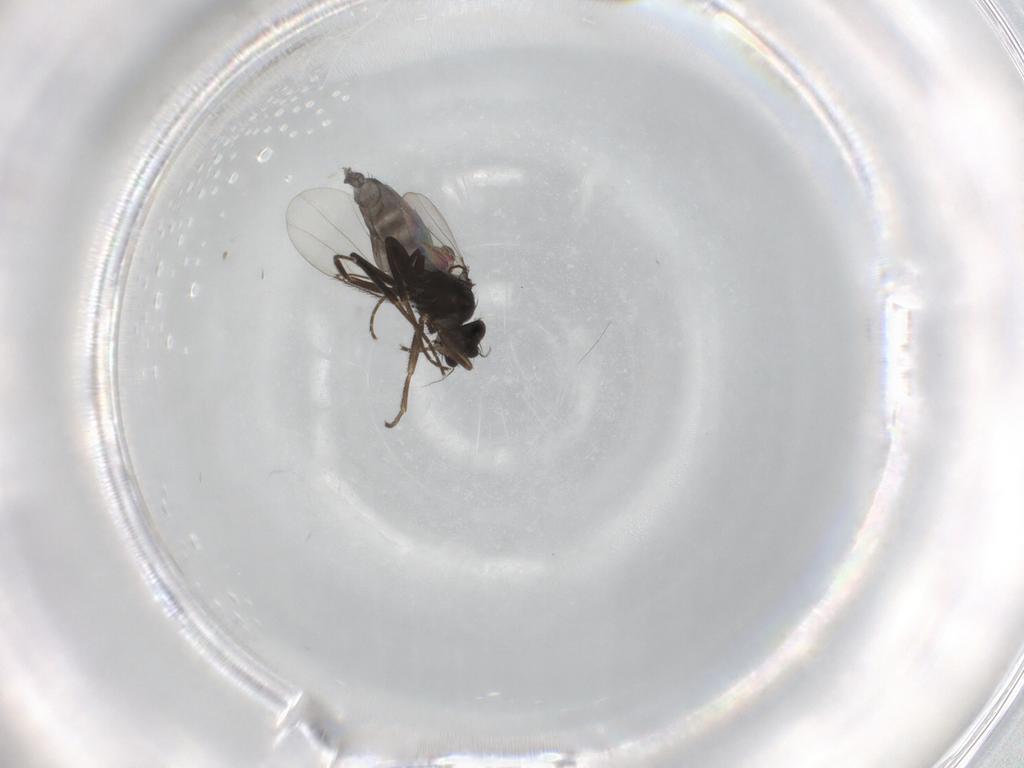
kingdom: Animalia
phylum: Arthropoda
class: Insecta
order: Diptera
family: Phoridae
